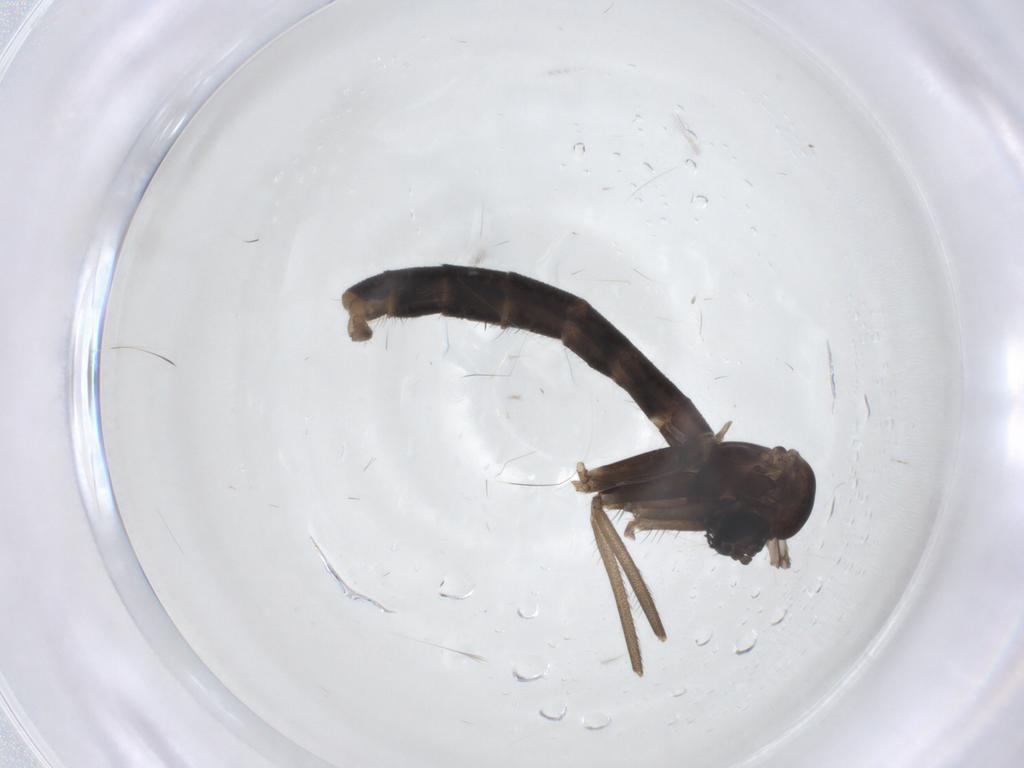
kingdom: Animalia
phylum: Arthropoda
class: Insecta
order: Diptera
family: Tachinidae
